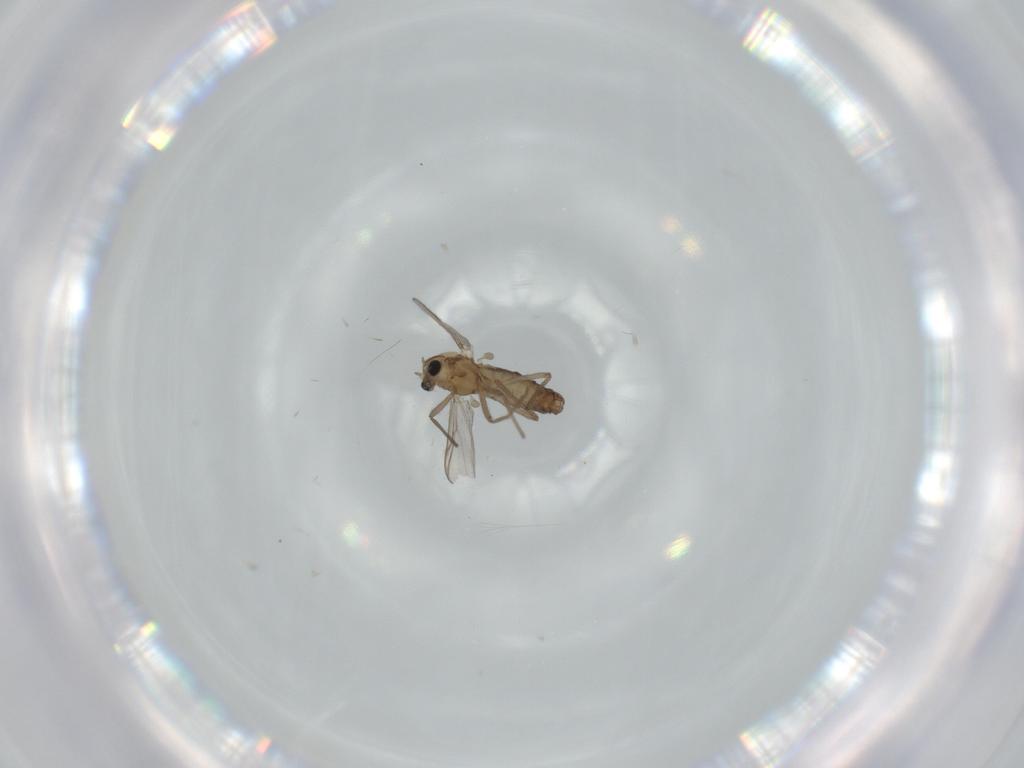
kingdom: Animalia
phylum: Arthropoda
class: Insecta
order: Diptera
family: Chironomidae
